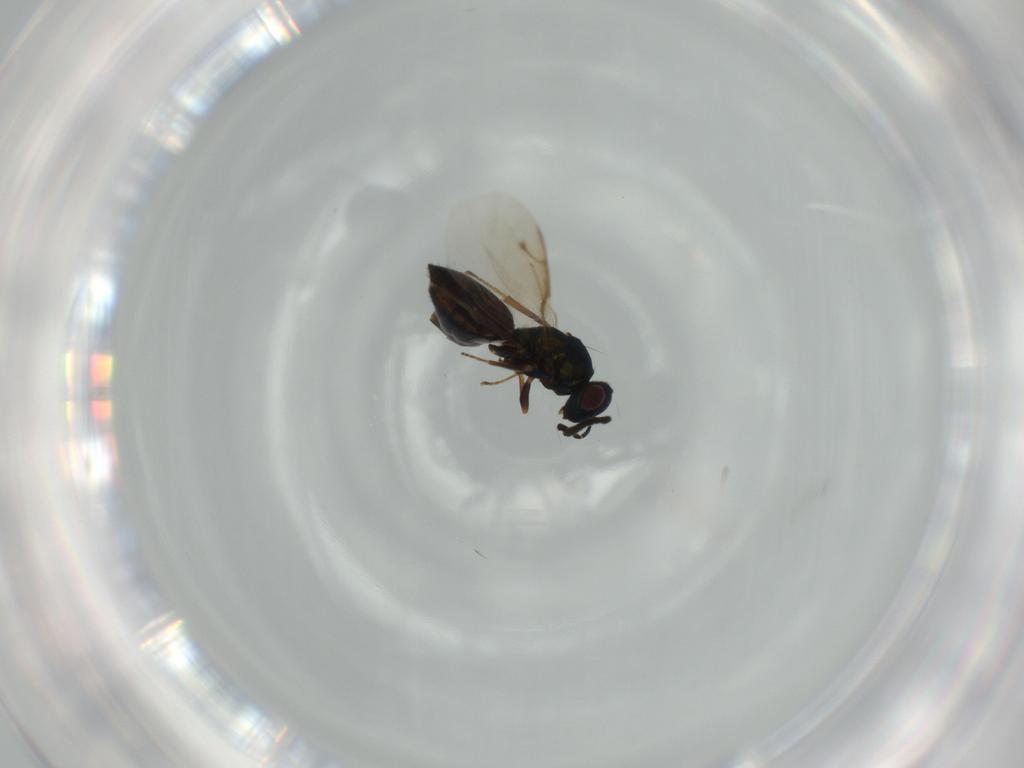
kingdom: Animalia
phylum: Arthropoda
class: Insecta
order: Hymenoptera
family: Pteromalidae
